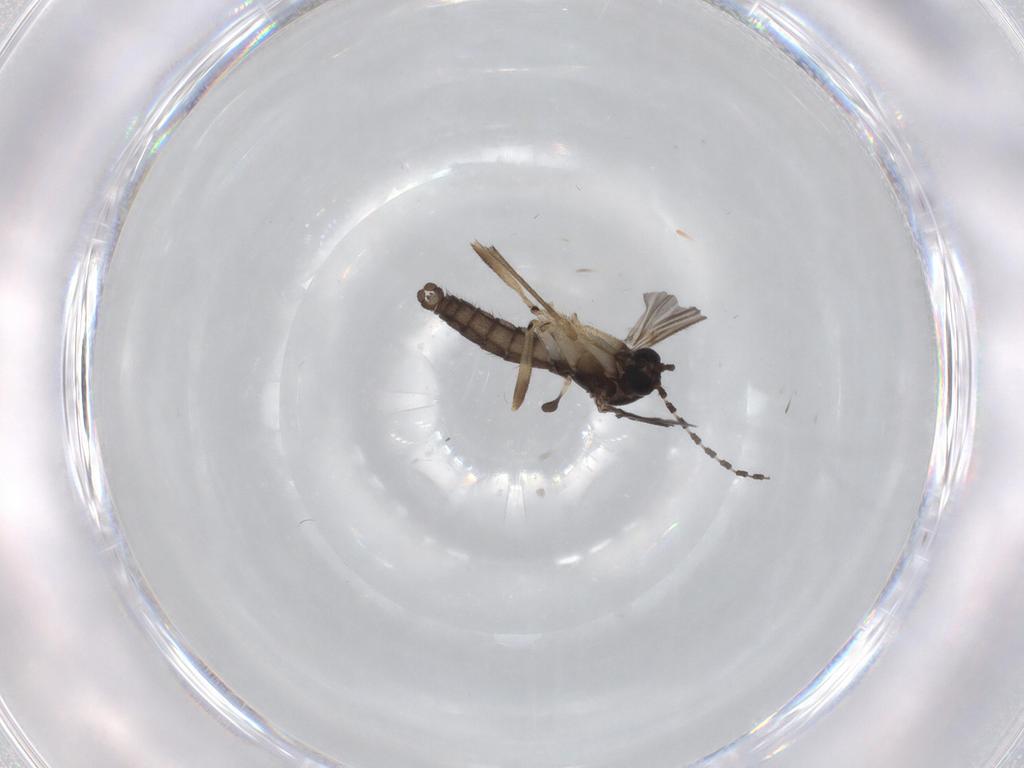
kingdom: Animalia
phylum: Arthropoda
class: Insecta
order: Diptera
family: Sciaridae
